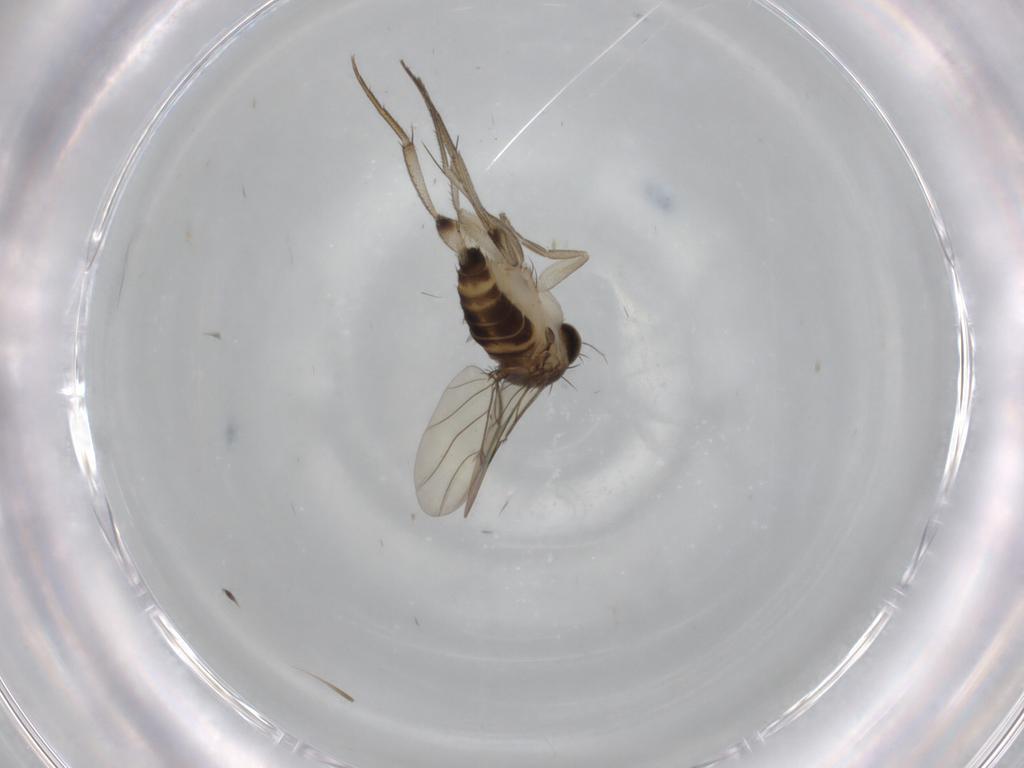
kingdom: Animalia
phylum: Arthropoda
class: Insecta
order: Diptera
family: Phoridae
